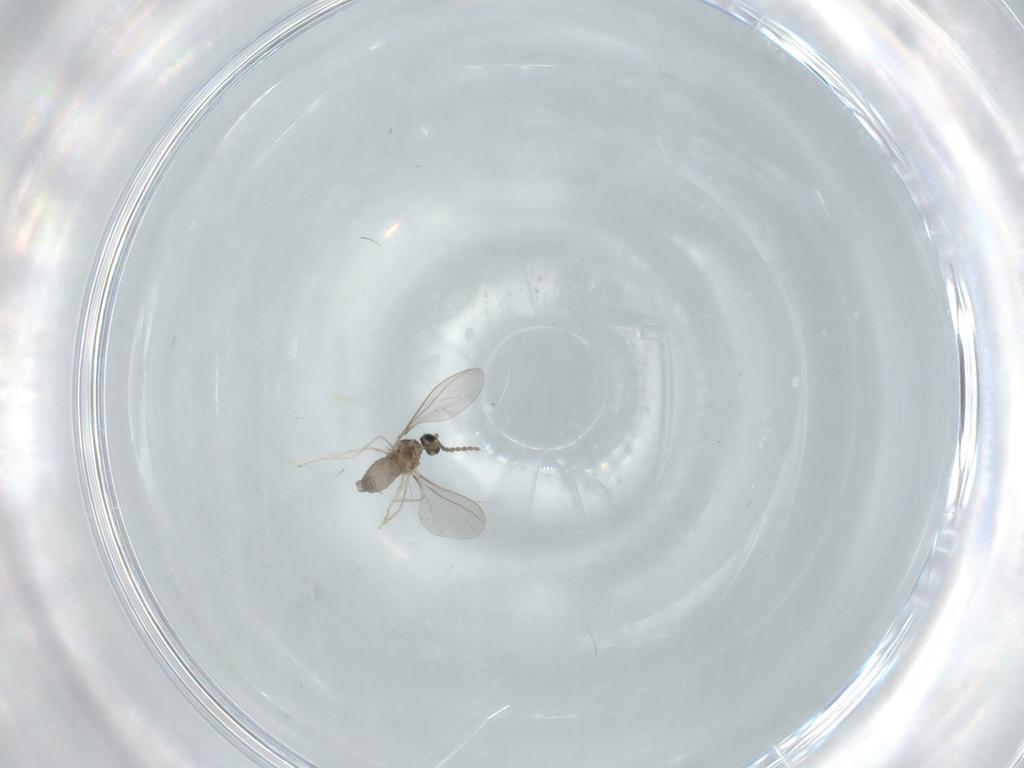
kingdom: Animalia
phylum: Arthropoda
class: Insecta
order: Diptera
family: Cecidomyiidae
